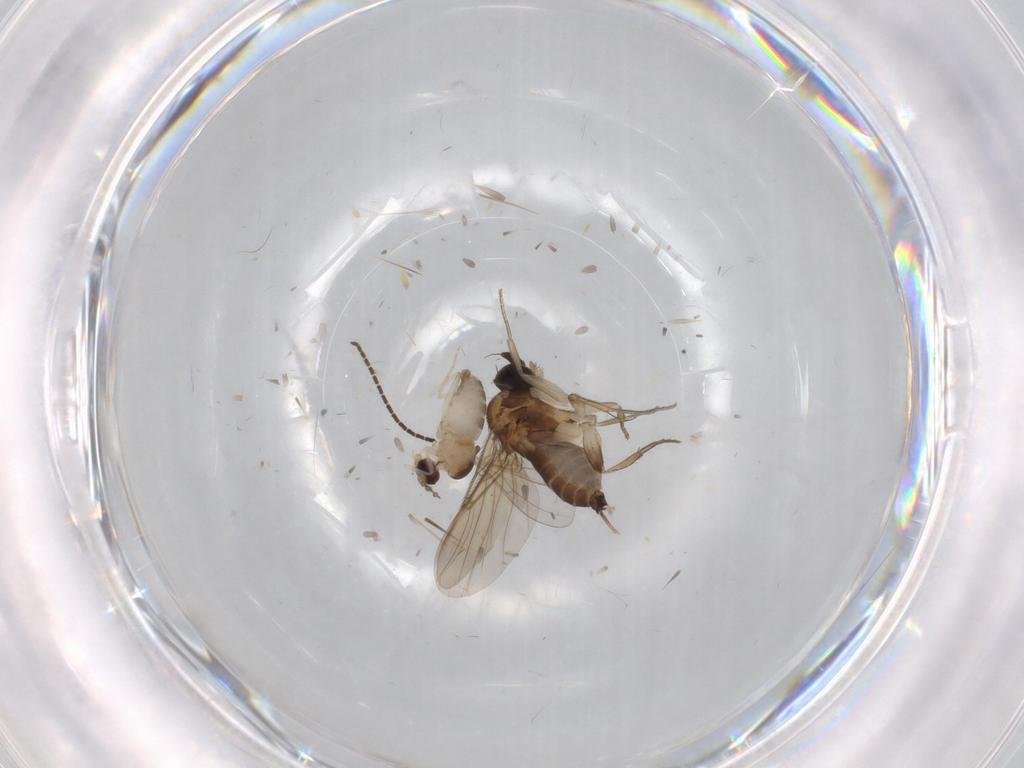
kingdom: Animalia
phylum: Arthropoda
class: Insecta
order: Diptera
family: Phoridae
